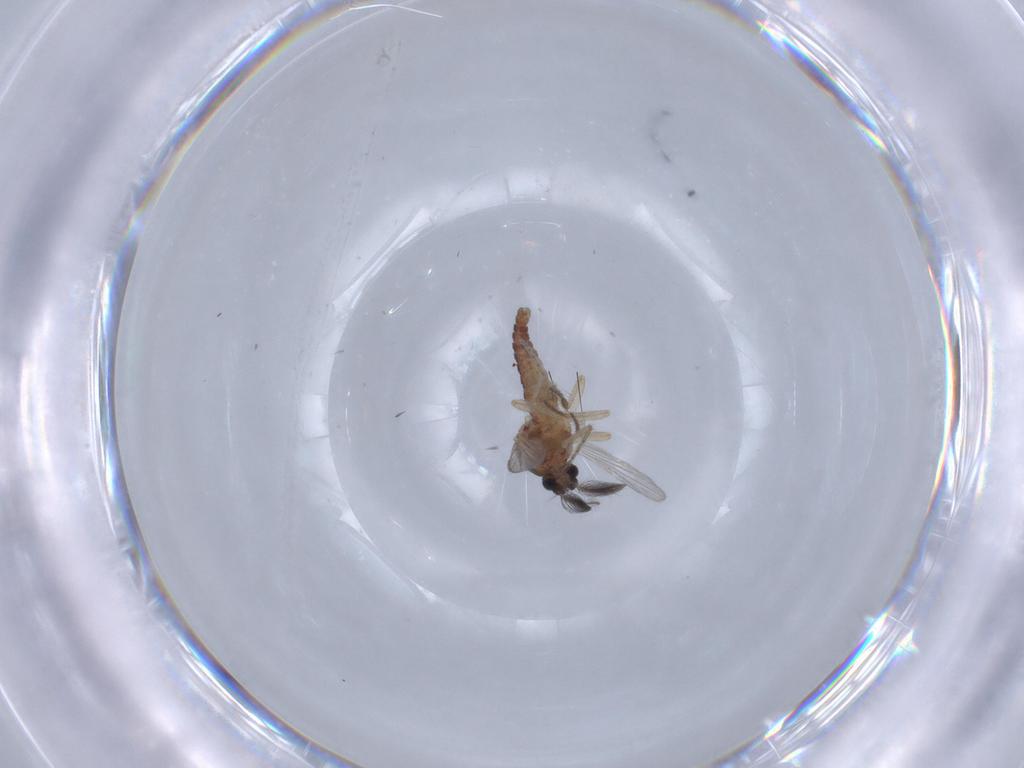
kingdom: Animalia
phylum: Arthropoda
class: Insecta
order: Diptera
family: Ceratopogonidae
